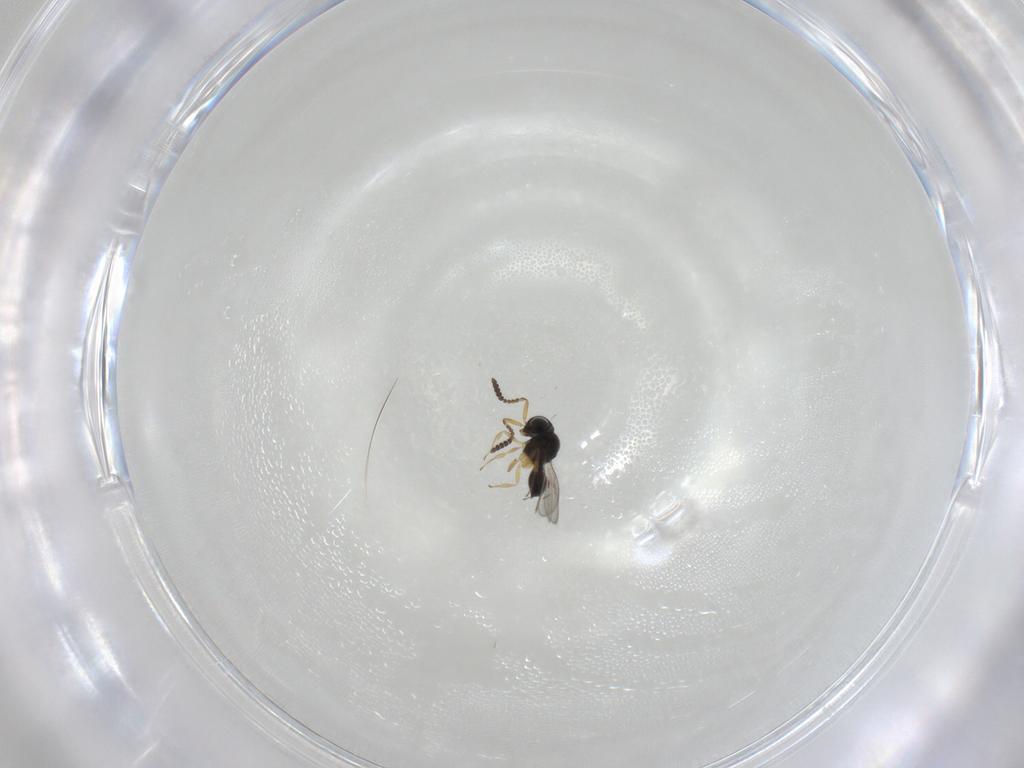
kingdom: Animalia
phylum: Arthropoda
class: Insecta
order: Hymenoptera
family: Scelionidae
